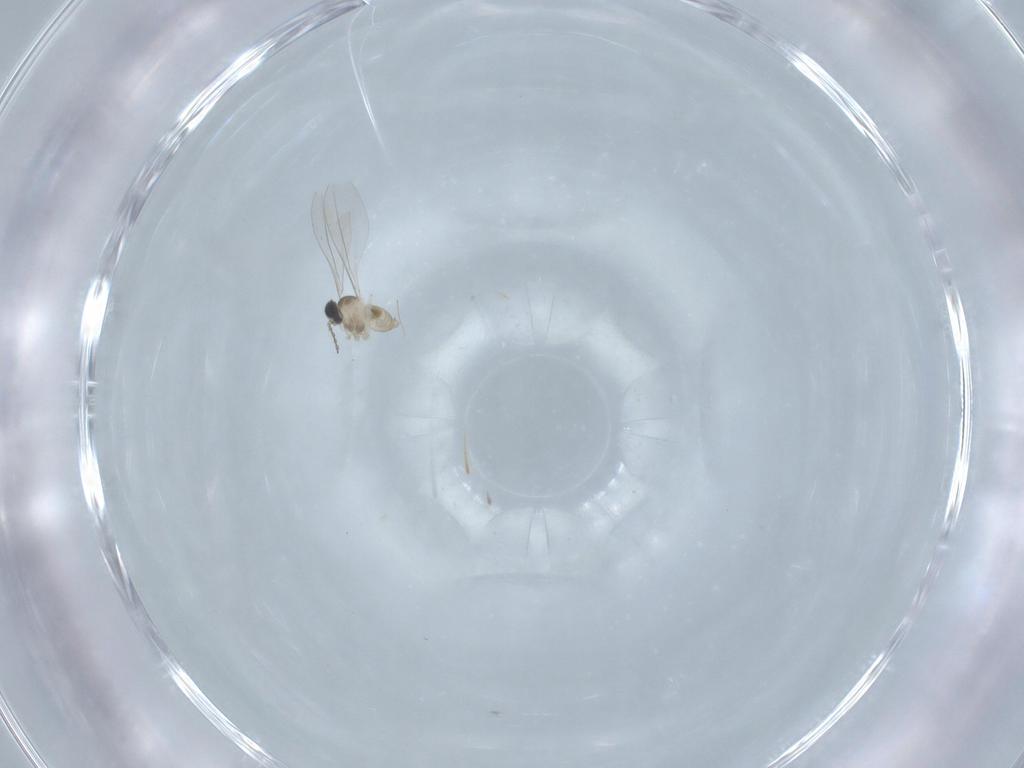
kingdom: Animalia
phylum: Arthropoda
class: Insecta
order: Diptera
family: Cecidomyiidae
